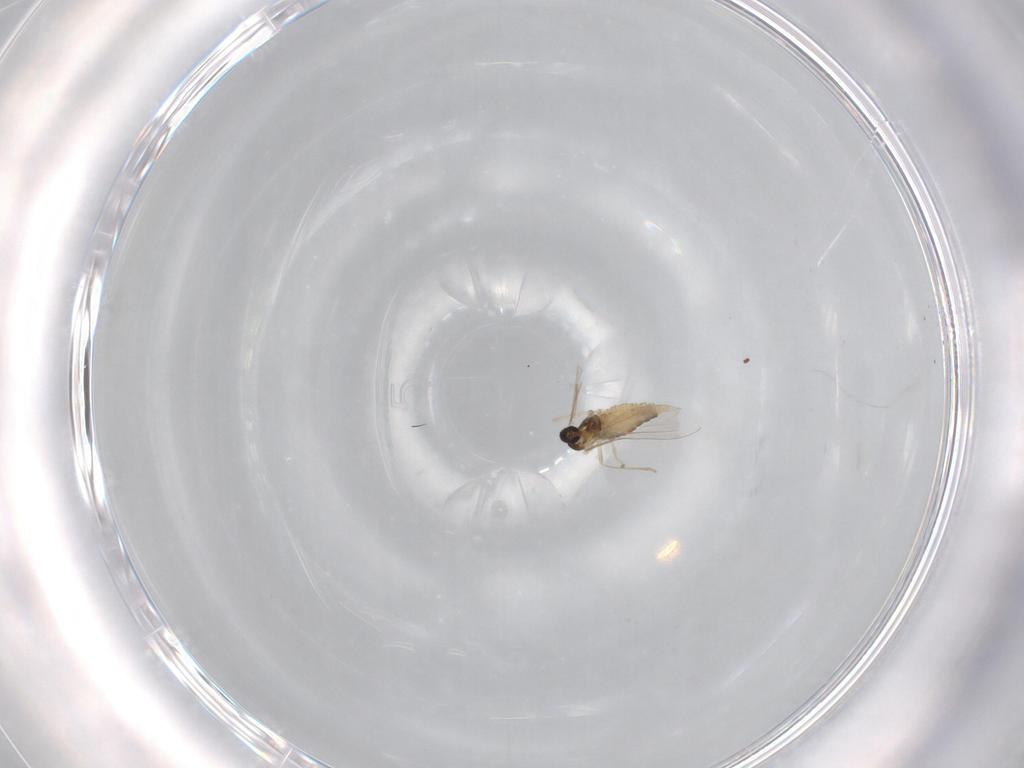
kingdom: Animalia
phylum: Arthropoda
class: Insecta
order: Diptera
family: Cecidomyiidae
